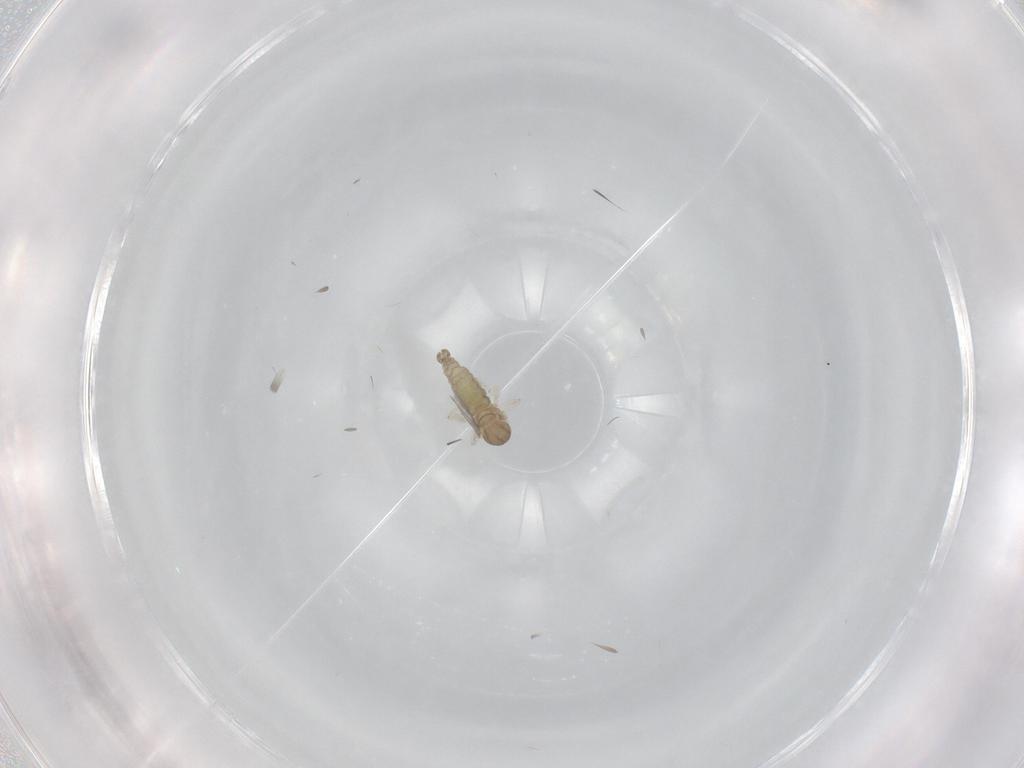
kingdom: Animalia
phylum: Arthropoda
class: Insecta
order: Diptera
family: Cecidomyiidae
